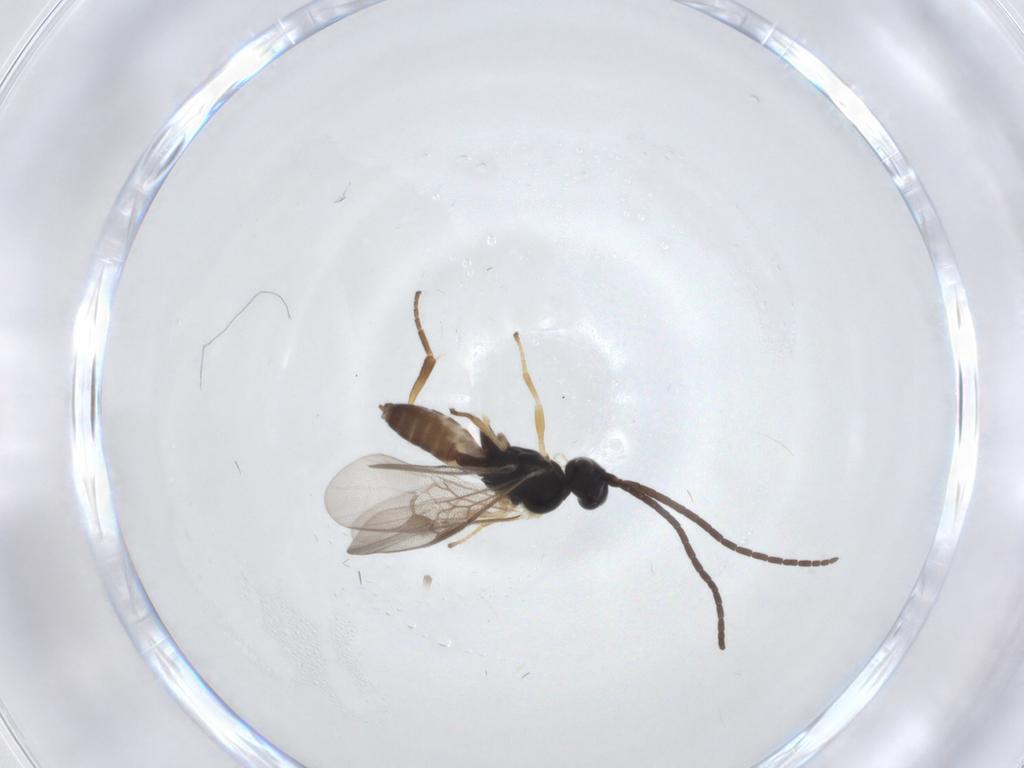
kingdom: Animalia
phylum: Arthropoda
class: Insecta
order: Hymenoptera
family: Braconidae
